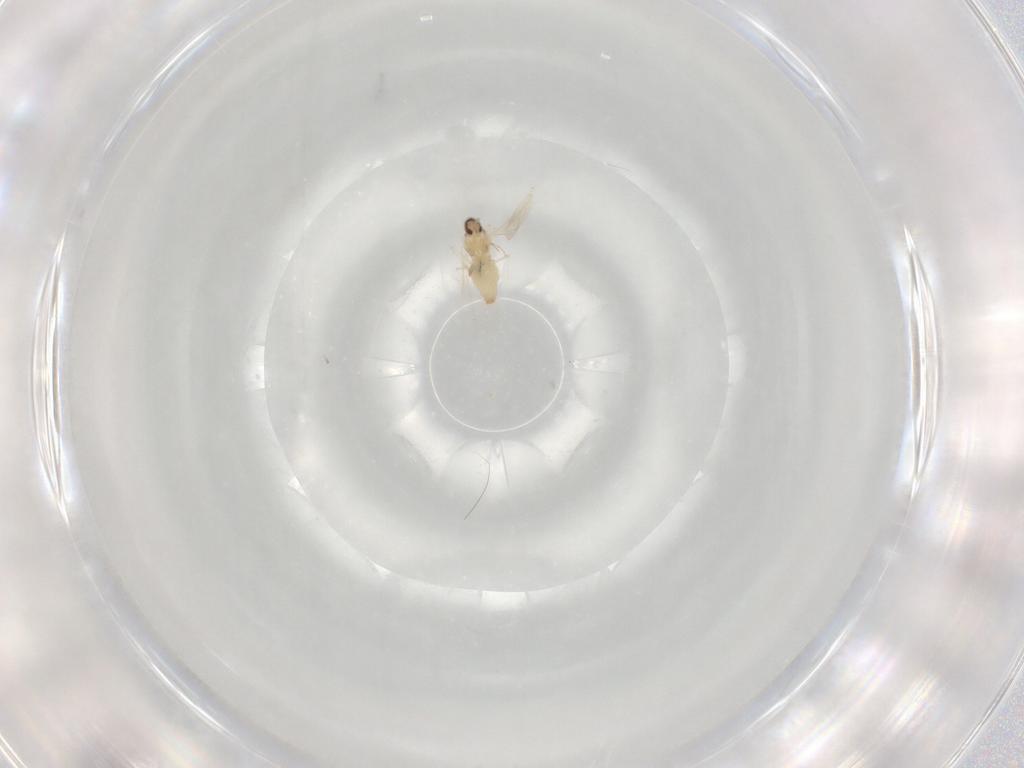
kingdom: Animalia
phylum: Arthropoda
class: Insecta
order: Diptera
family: Cecidomyiidae
